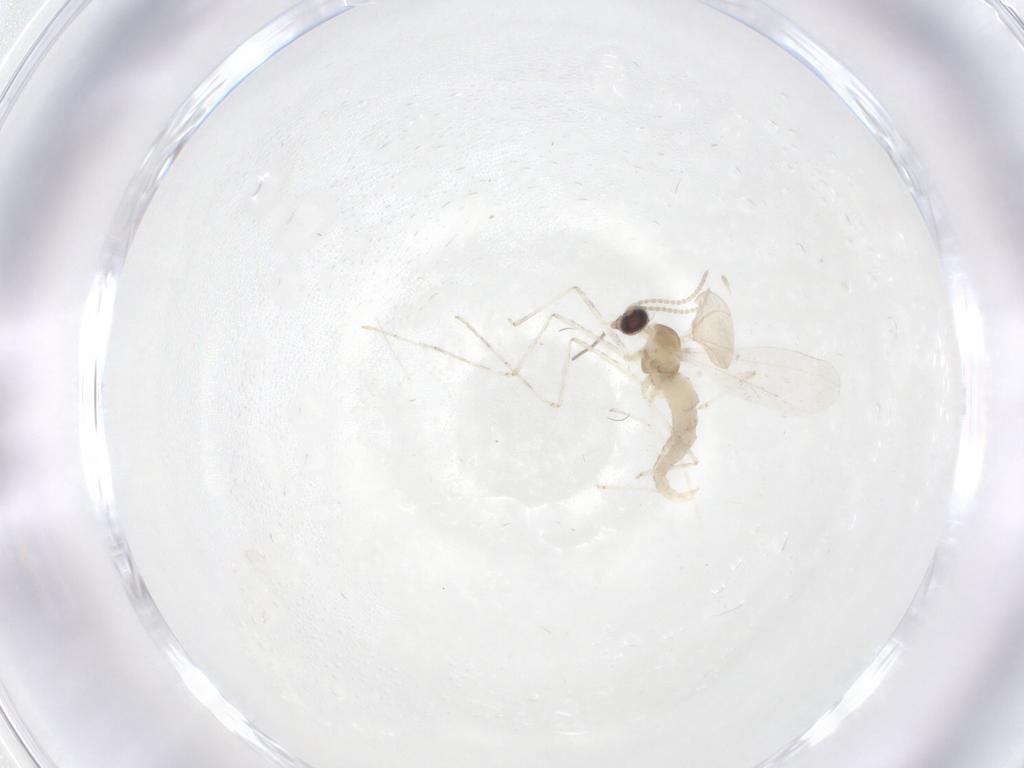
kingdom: Animalia
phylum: Arthropoda
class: Insecta
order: Diptera
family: Cecidomyiidae
